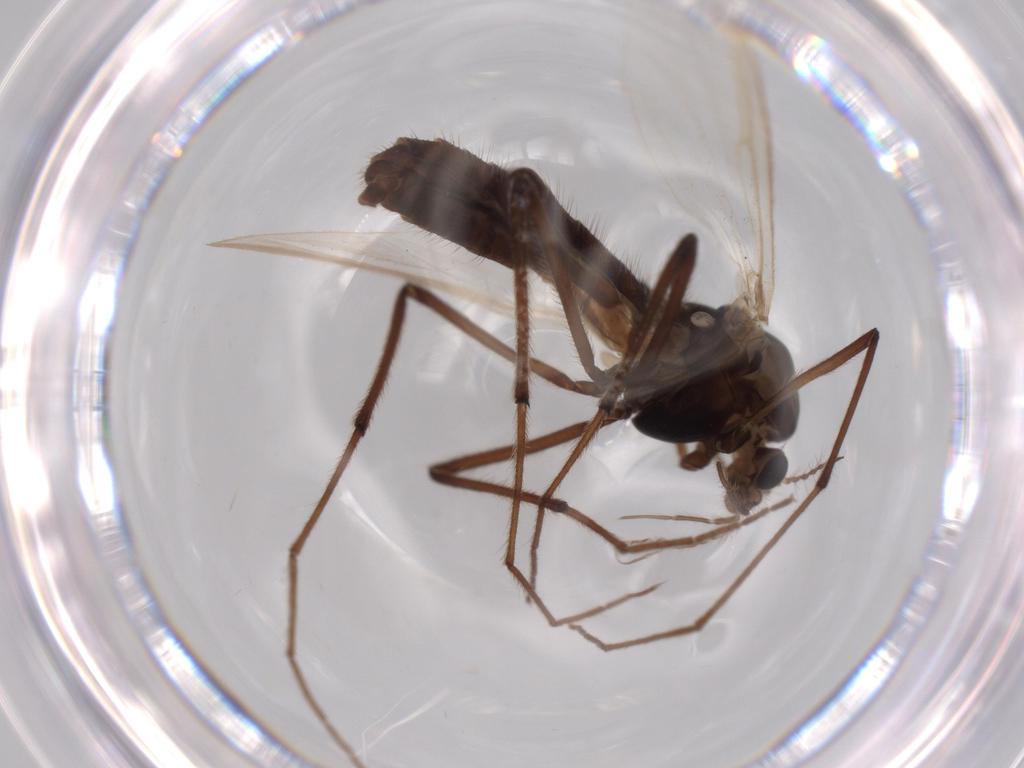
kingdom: Animalia
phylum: Arthropoda
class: Insecta
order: Diptera
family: Chironomidae
